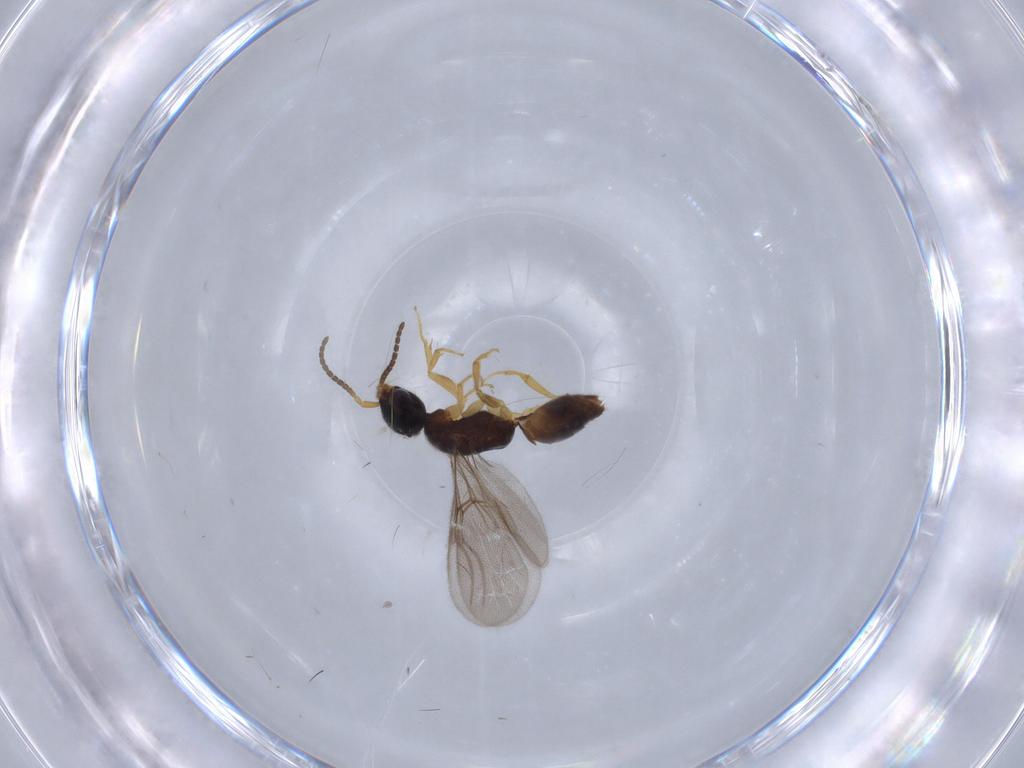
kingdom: Animalia
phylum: Arthropoda
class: Insecta
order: Hymenoptera
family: Bethylidae
